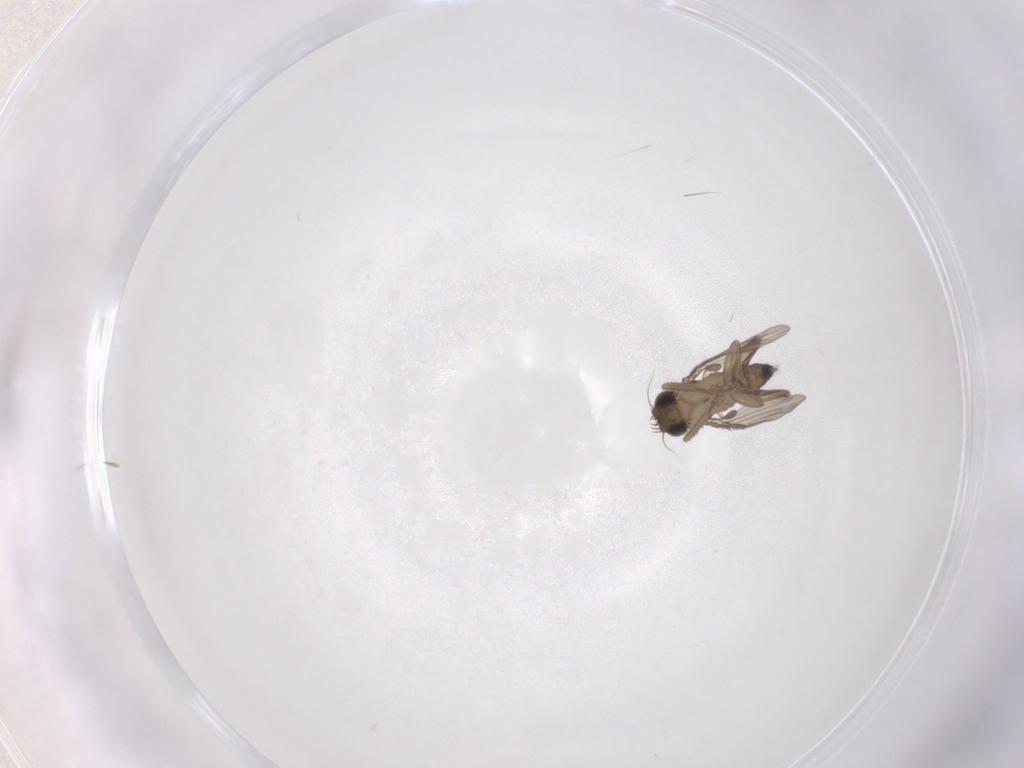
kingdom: Animalia
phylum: Arthropoda
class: Insecta
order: Diptera
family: Phoridae
